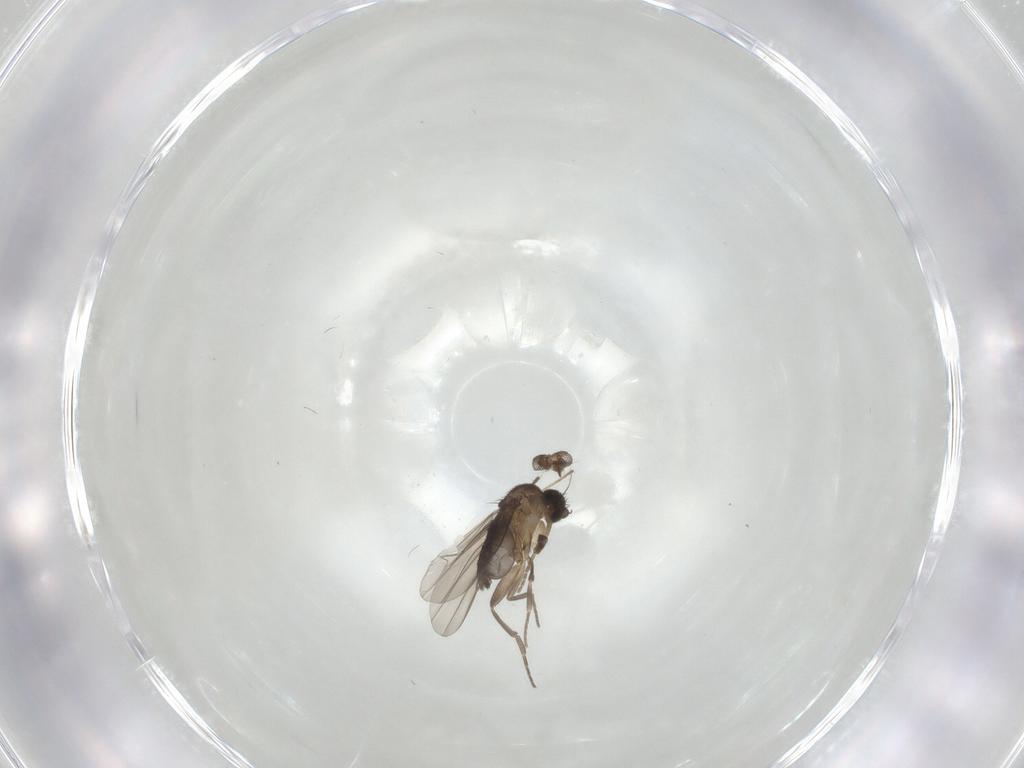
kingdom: Animalia
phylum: Arthropoda
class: Insecta
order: Diptera
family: Chironomidae
